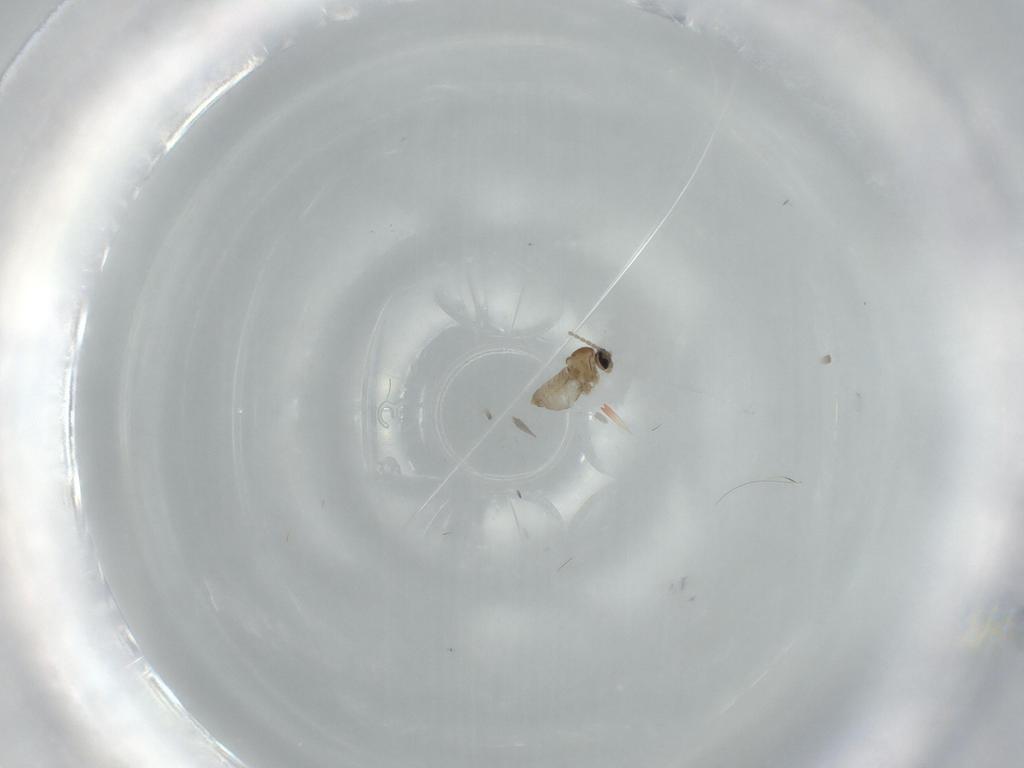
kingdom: Animalia
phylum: Arthropoda
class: Insecta
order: Diptera
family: Cecidomyiidae
